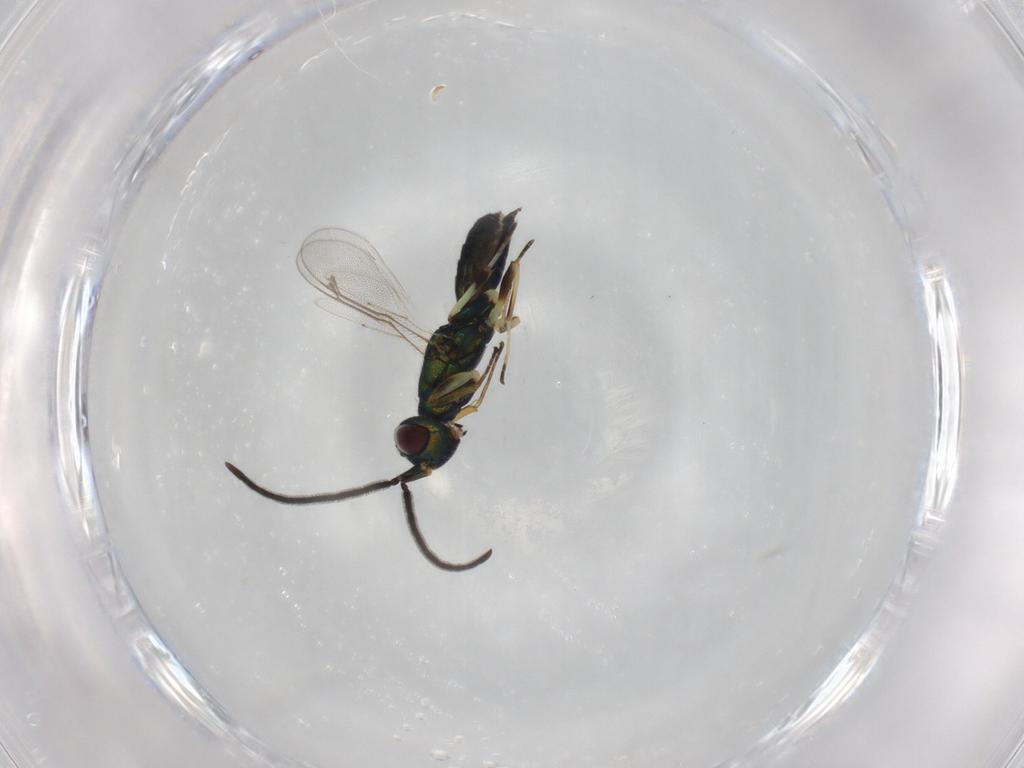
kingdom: Animalia
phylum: Arthropoda
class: Insecta
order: Hymenoptera
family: Eupelmidae
